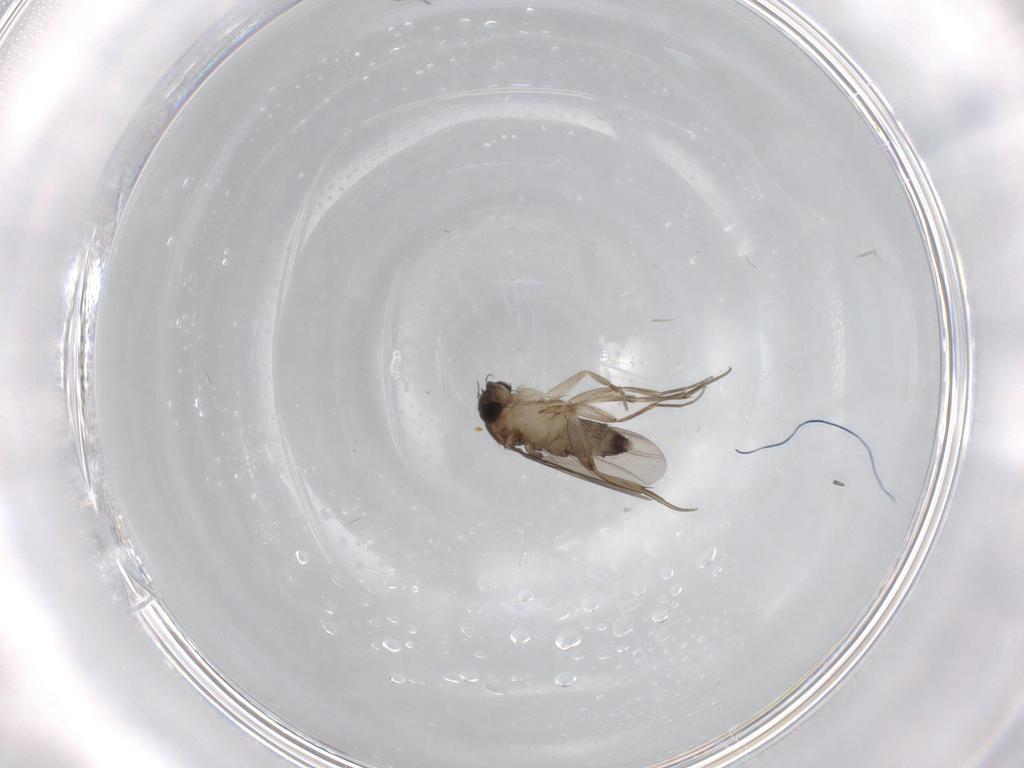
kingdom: Animalia
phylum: Arthropoda
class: Insecta
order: Diptera
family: Phoridae
